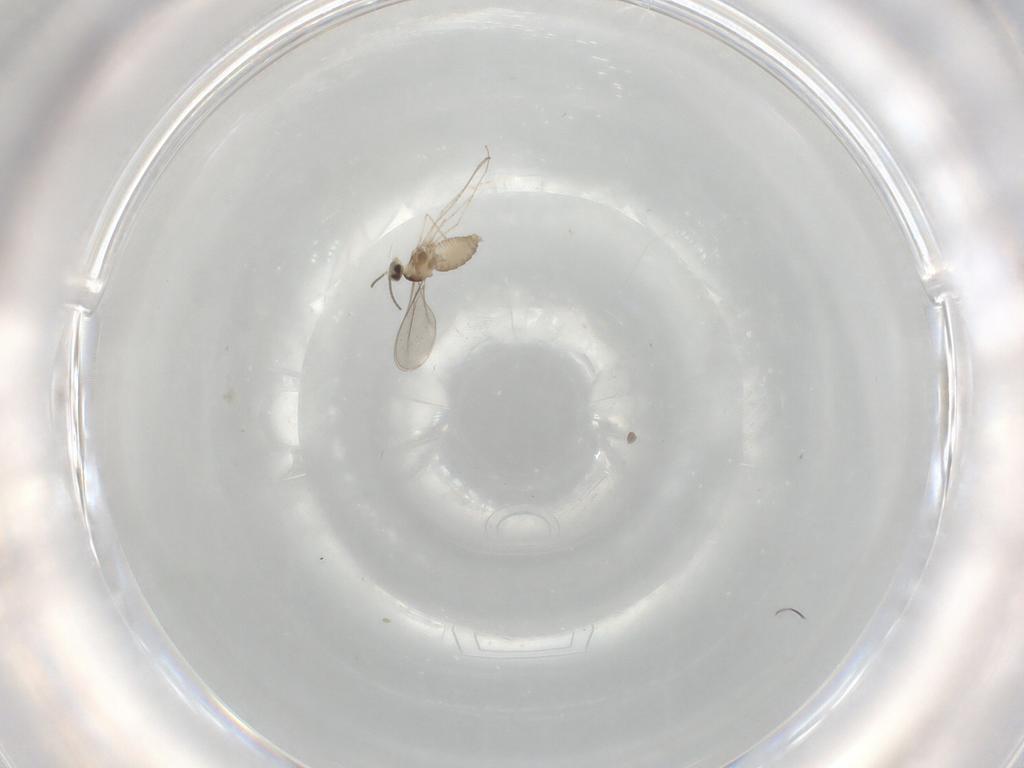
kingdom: Animalia
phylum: Arthropoda
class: Insecta
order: Diptera
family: Cecidomyiidae
